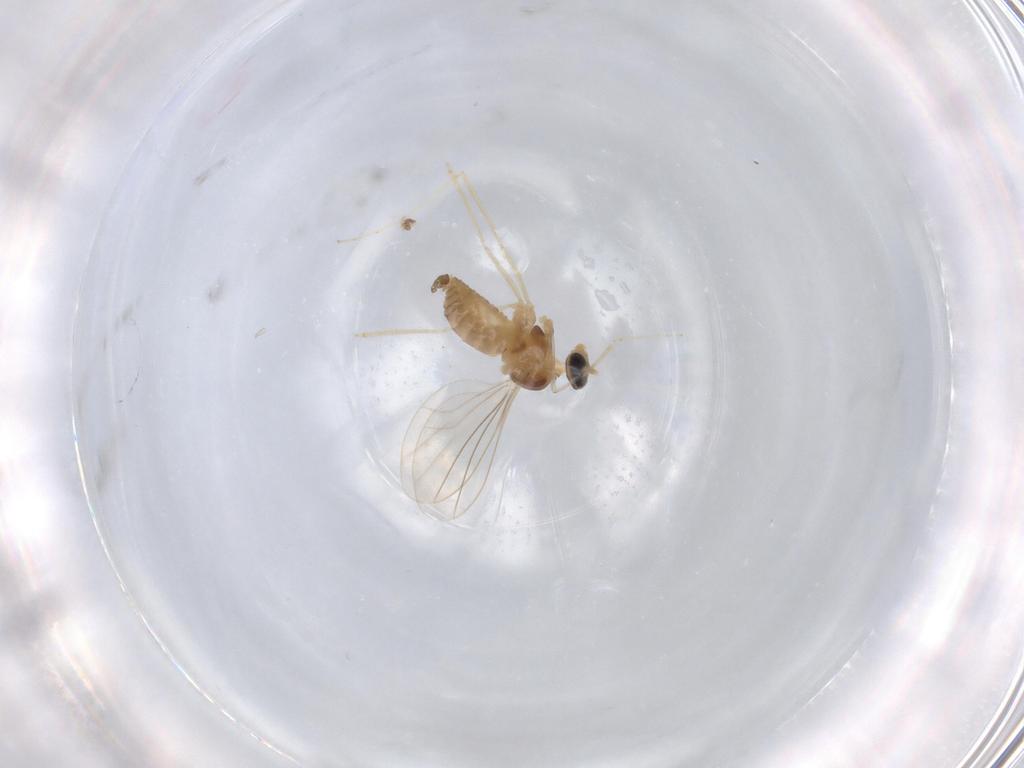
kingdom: Animalia
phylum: Arthropoda
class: Insecta
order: Diptera
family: Cecidomyiidae
